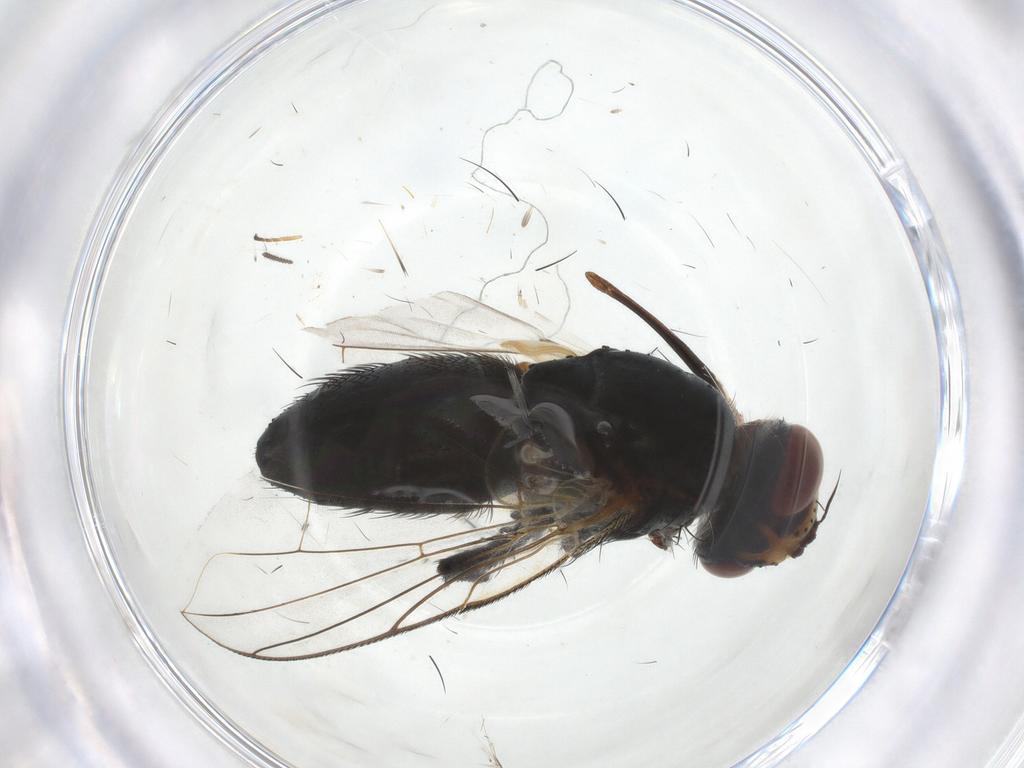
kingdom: Animalia
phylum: Arthropoda
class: Insecta
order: Diptera
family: Tachinidae
